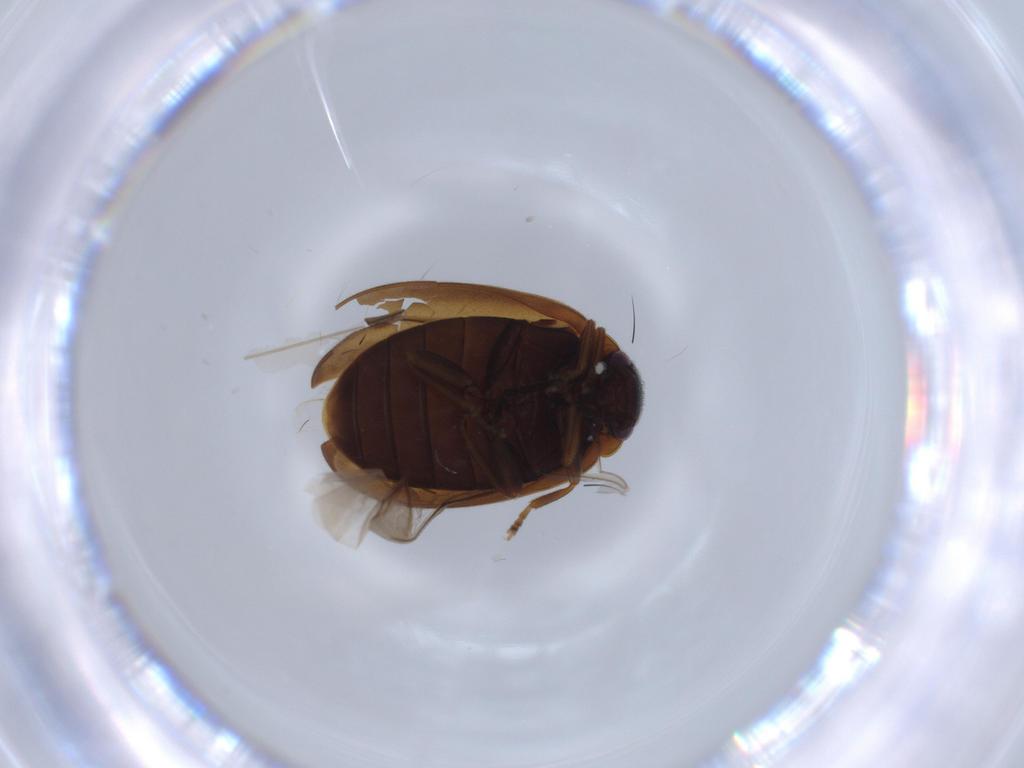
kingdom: Animalia
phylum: Arthropoda
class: Insecta
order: Coleoptera
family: Scirtidae
